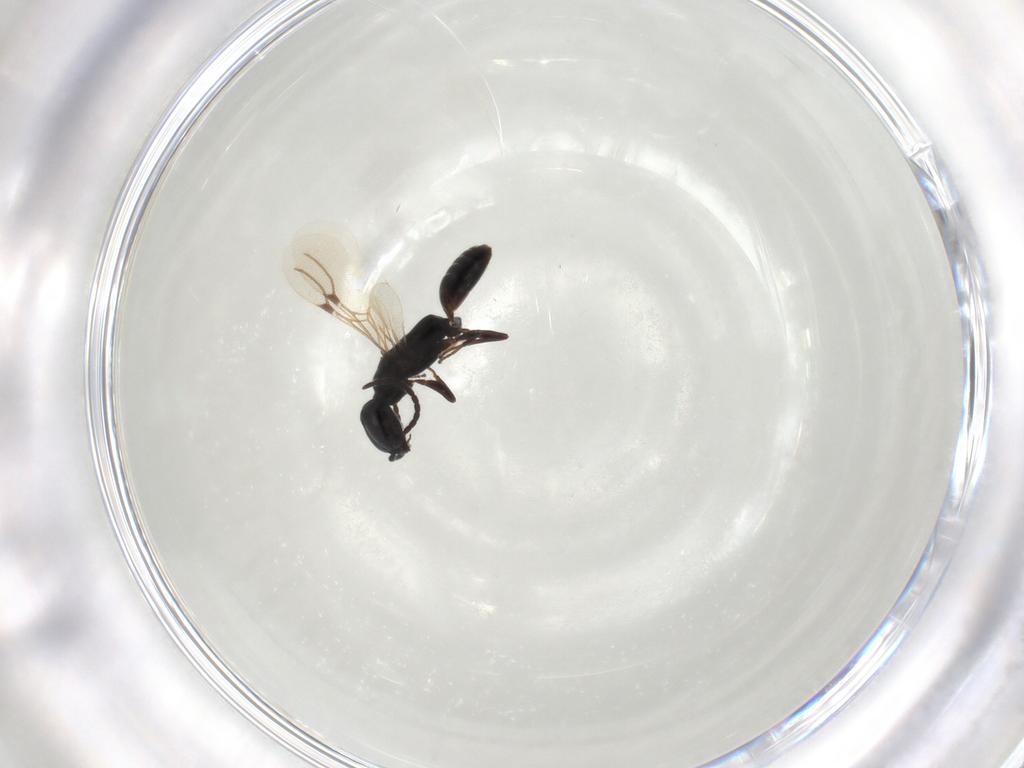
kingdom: Animalia
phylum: Arthropoda
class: Insecta
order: Hymenoptera
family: Bethylidae
